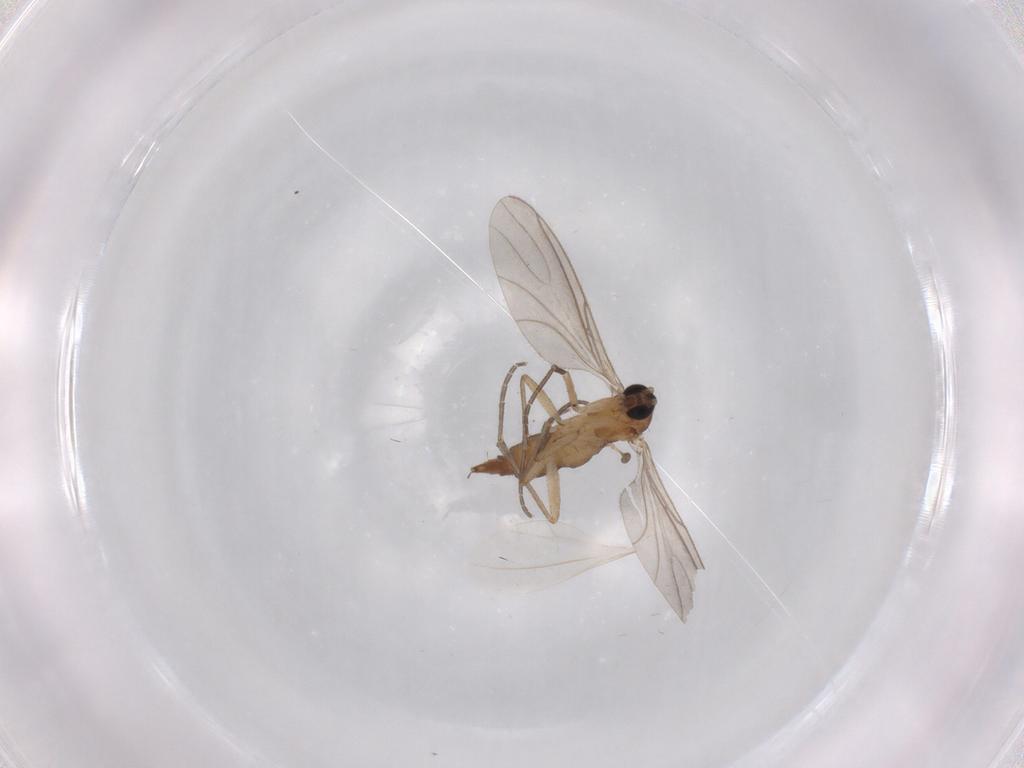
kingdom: Animalia
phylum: Arthropoda
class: Insecta
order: Diptera
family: Sciaridae
